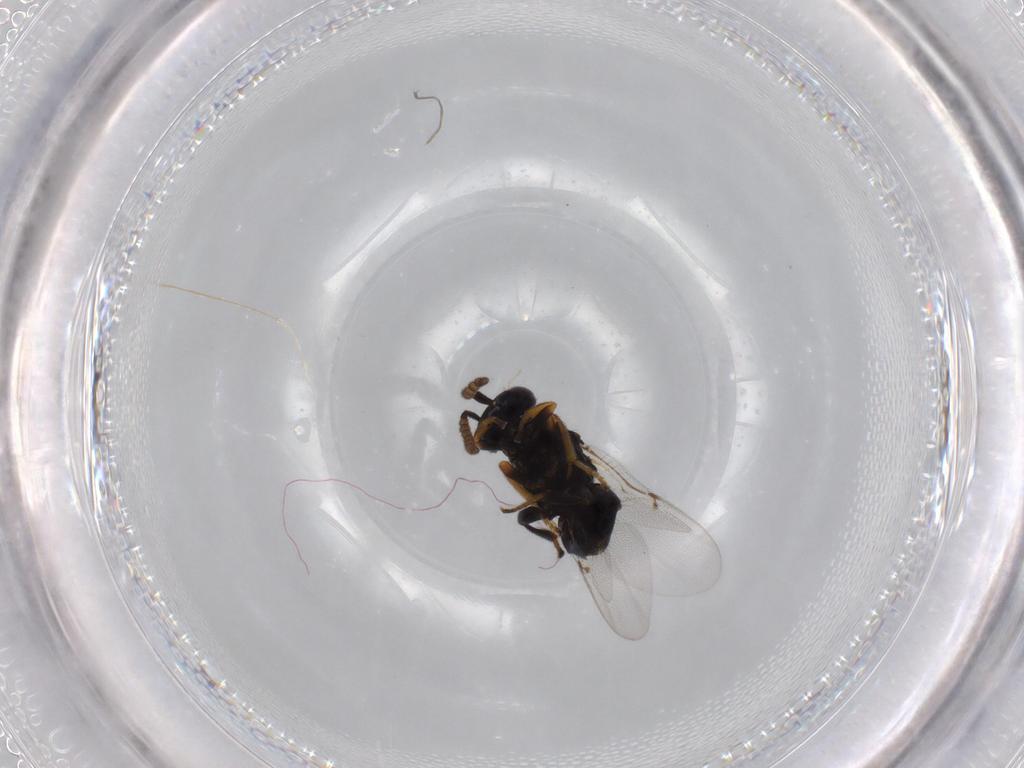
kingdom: Animalia
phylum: Arthropoda
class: Insecta
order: Hymenoptera
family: Encyrtidae
